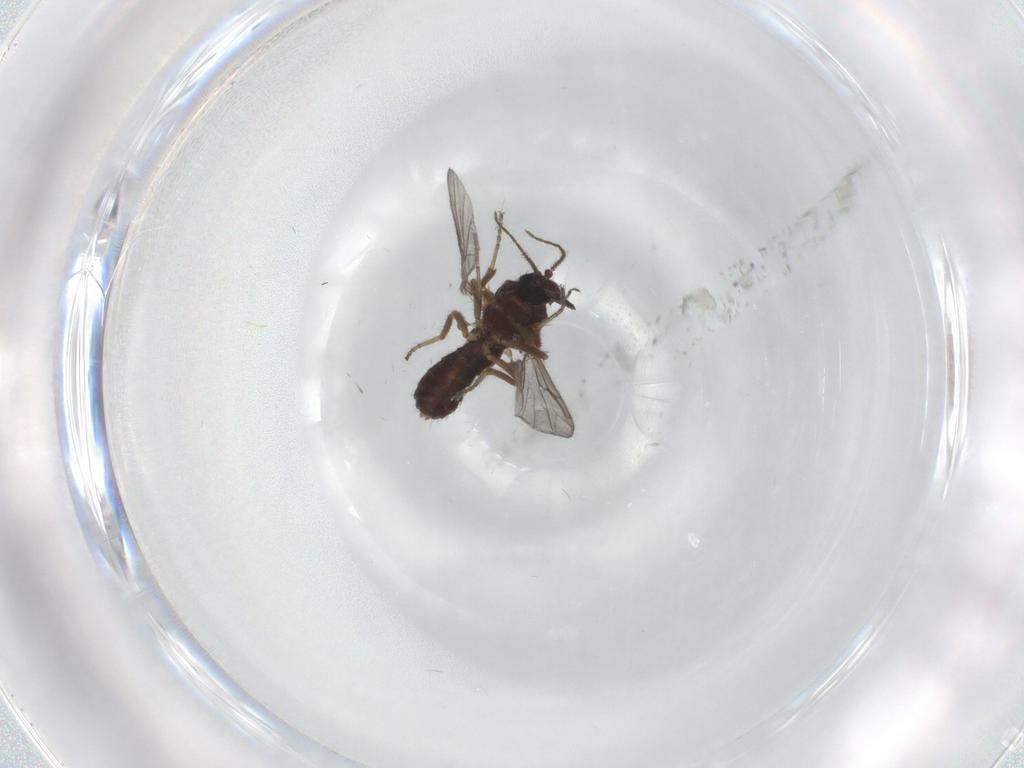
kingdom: Animalia
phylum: Arthropoda
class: Insecta
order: Diptera
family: Ceratopogonidae
